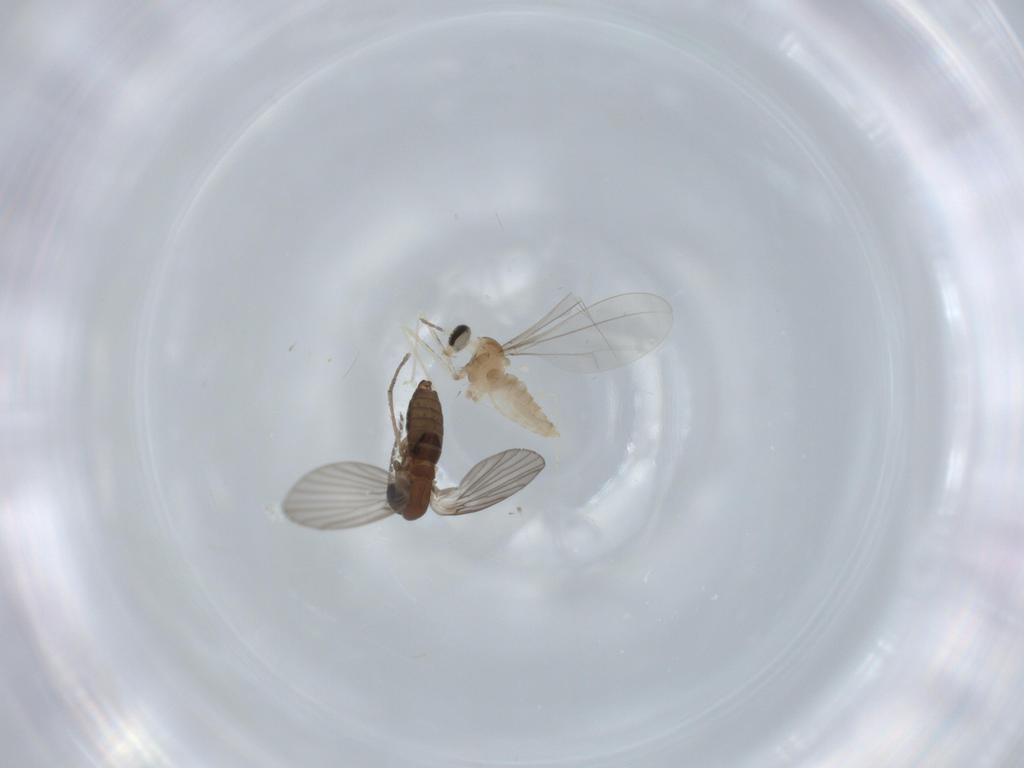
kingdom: Animalia
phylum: Arthropoda
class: Insecta
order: Diptera
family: Cecidomyiidae
